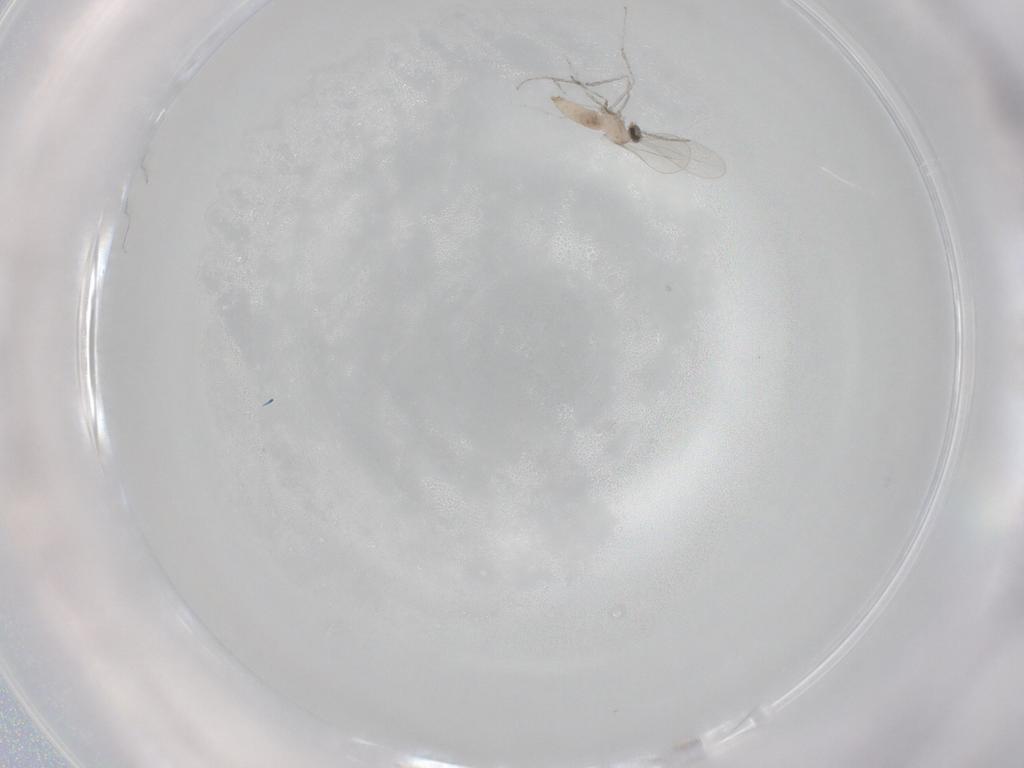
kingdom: Animalia
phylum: Arthropoda
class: Insecta
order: Diptera
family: Cecidomyiidae
